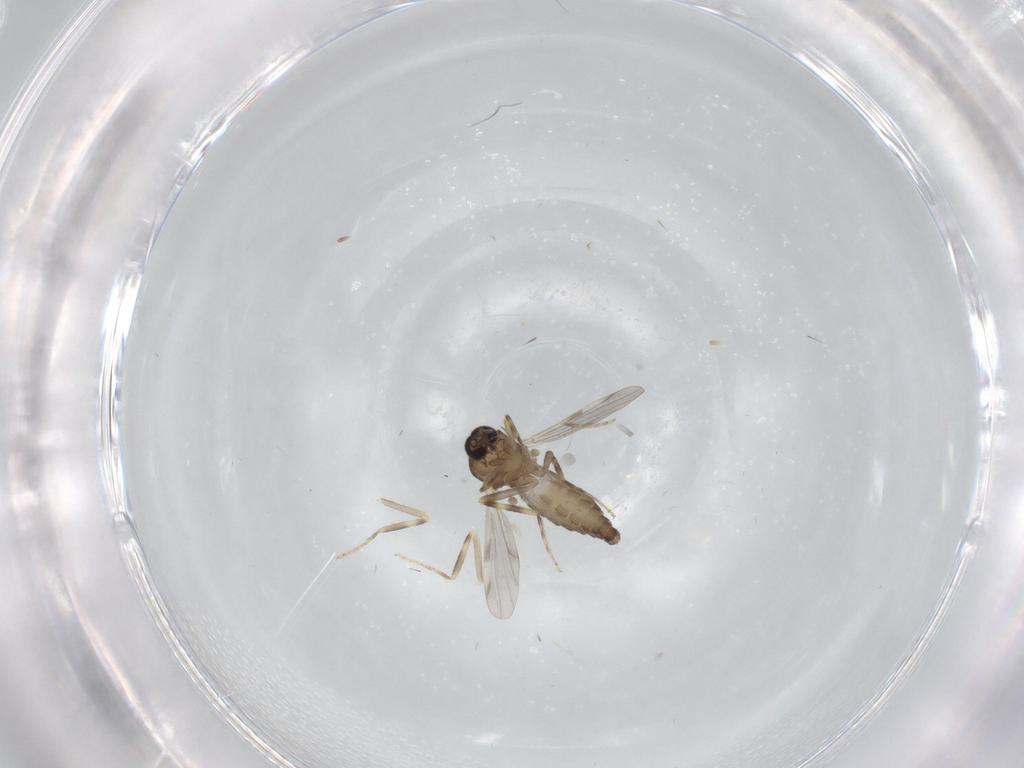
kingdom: Animalia
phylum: Arthropoda
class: Insecta
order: Diptera
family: Ceratopogonidae
